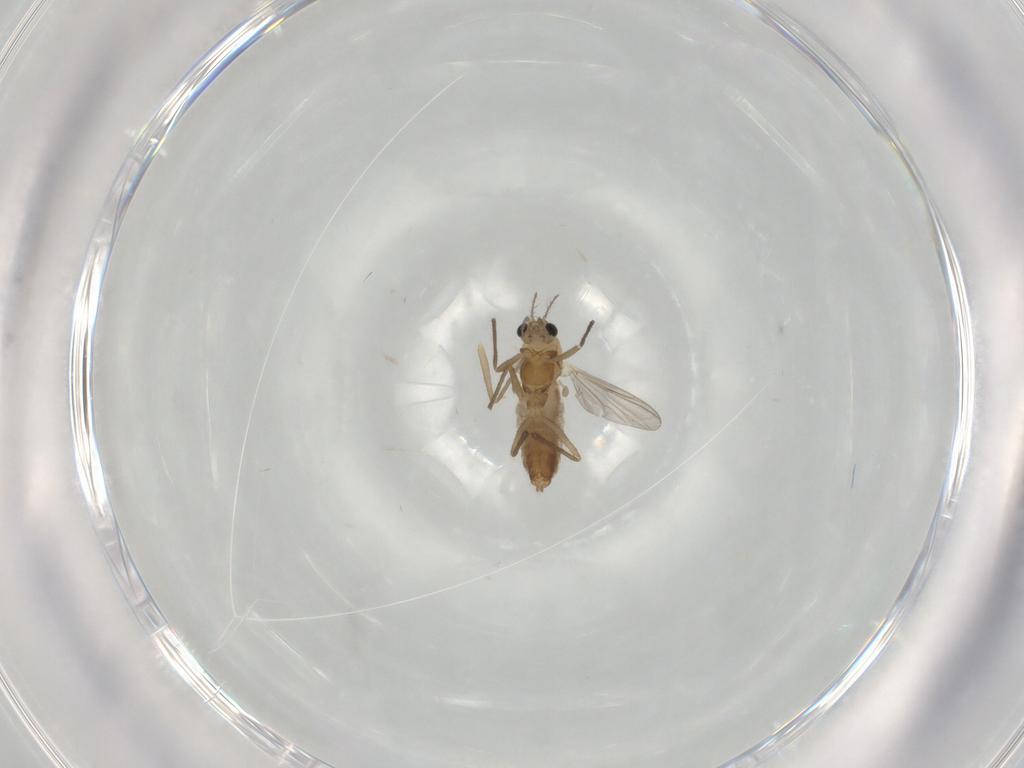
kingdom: Animalia
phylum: Arthropoda
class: Insecta
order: Diptera
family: Chironomidae
